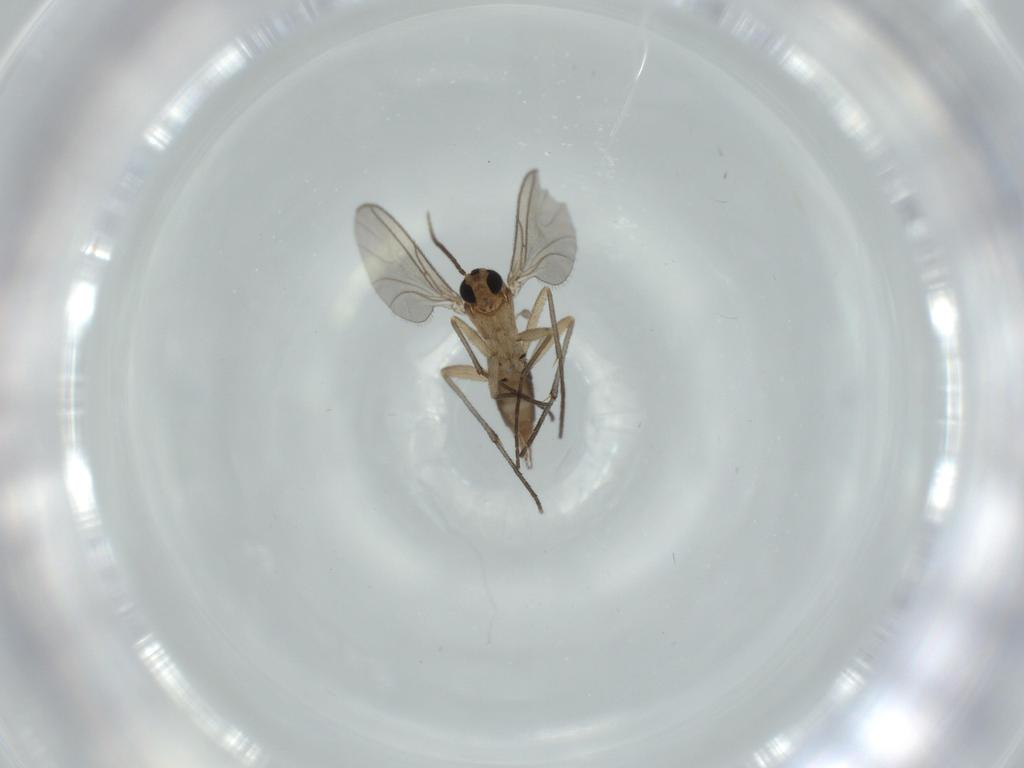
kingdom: Animalia
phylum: Arthropoda
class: Insecta
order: Diptera
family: Sciaridae
